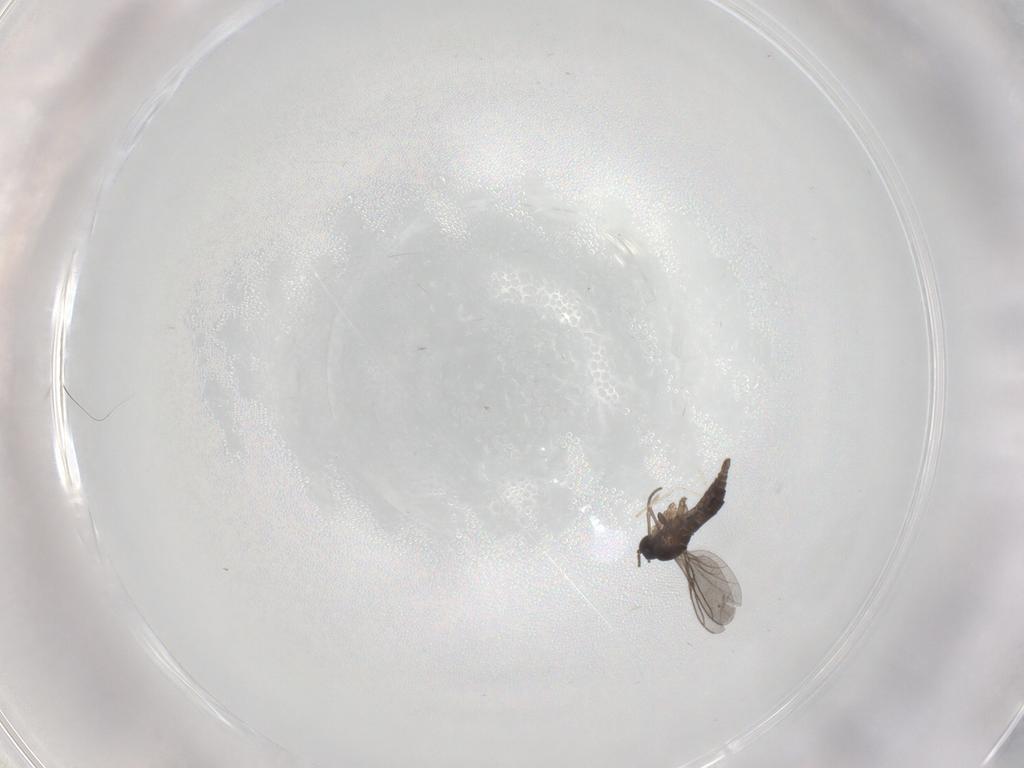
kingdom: Animalia
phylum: Arthropoda
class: Insecta
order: Diptera
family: Sciaridae
